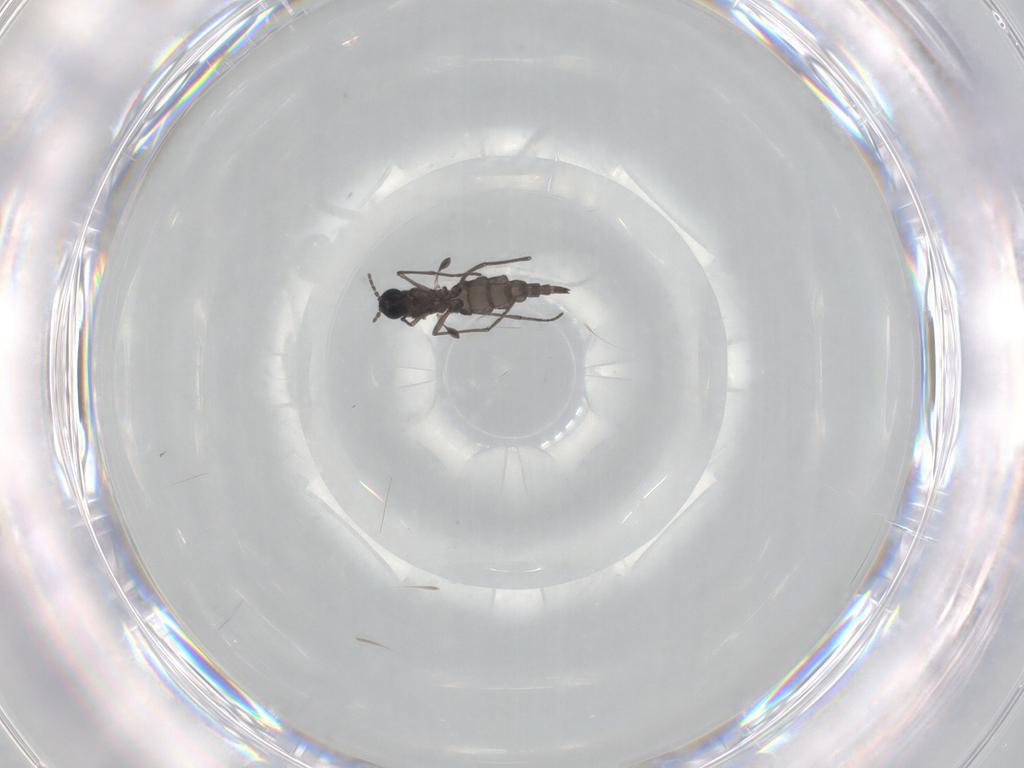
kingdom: Animalia
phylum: Arthropoda
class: Insecta
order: Diptera
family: Sciaridae
